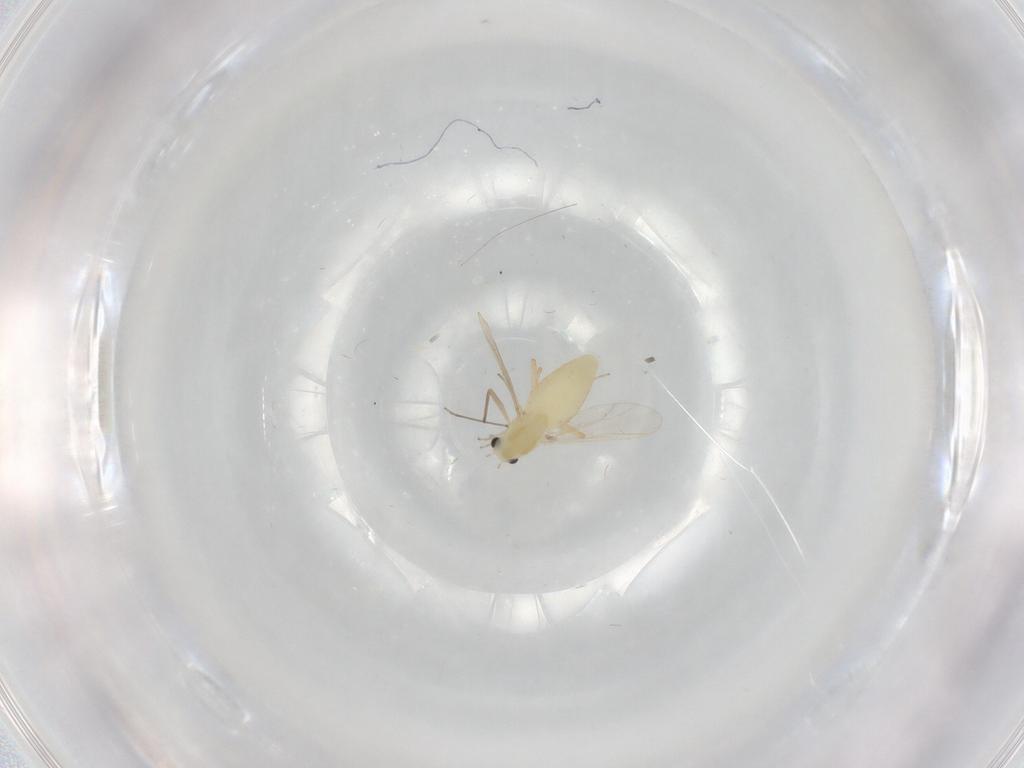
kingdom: Animalia
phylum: Arthropoda
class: Insecta
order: Diptera
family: Chironomidae
